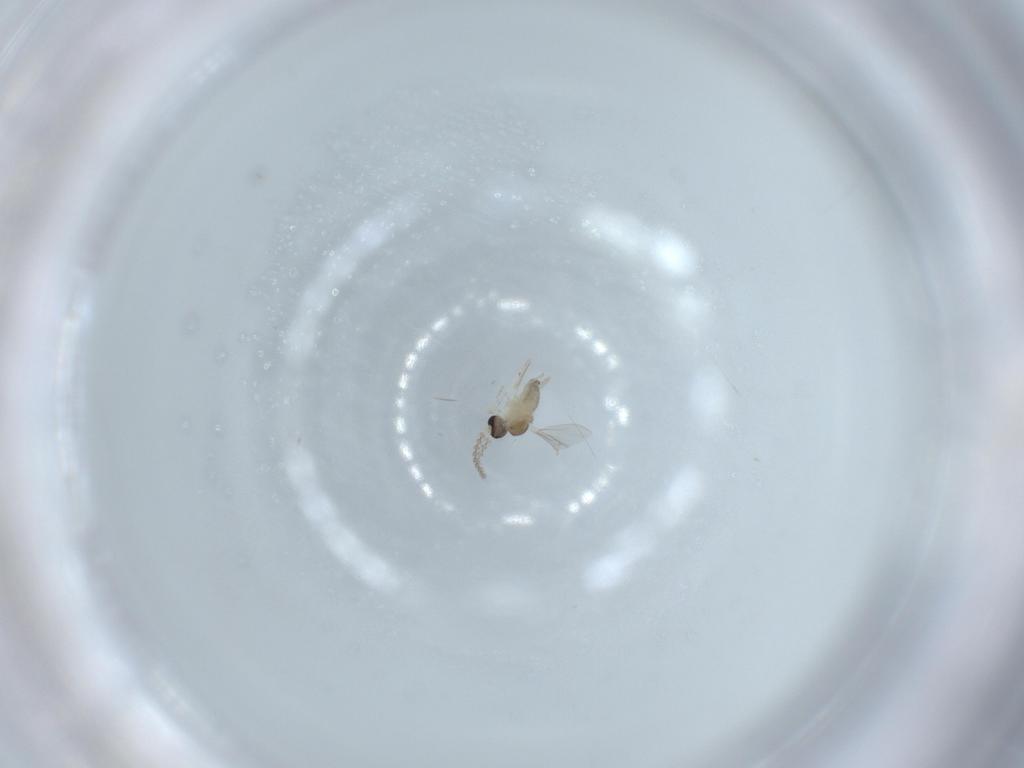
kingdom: Animalia
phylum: Arthropoda
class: Insecta
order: Diptera
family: Cecidomyiidae
